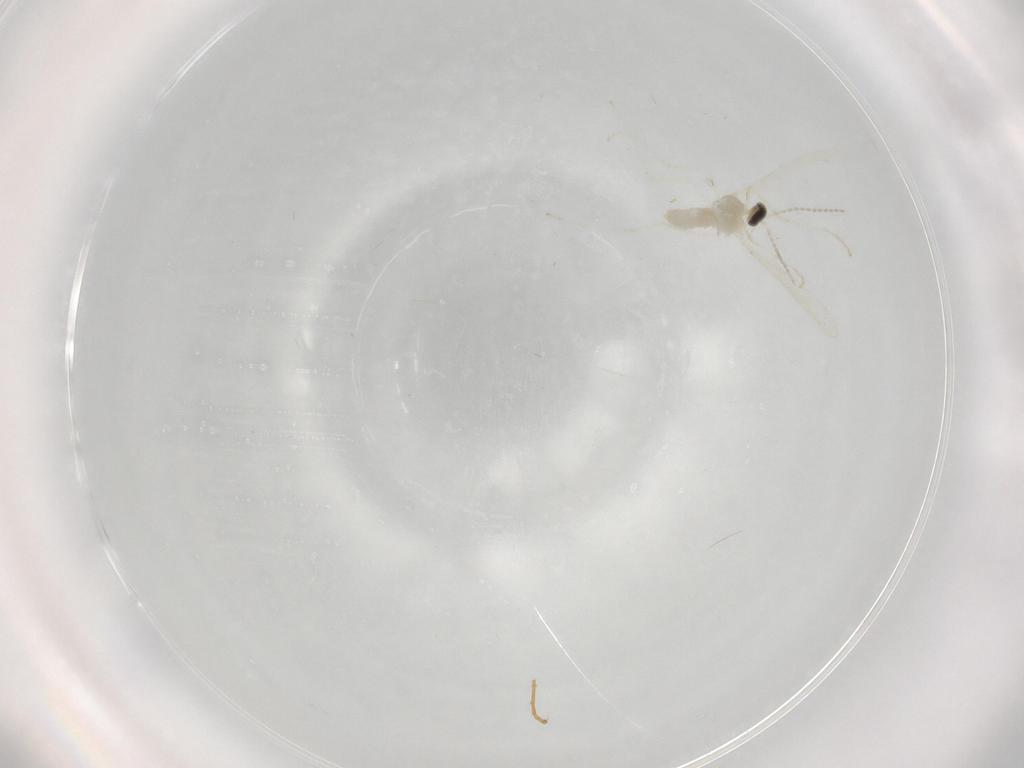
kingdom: Animalia
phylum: Arthropoda
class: Insecta
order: Diptera
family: Cecidomyiidae
